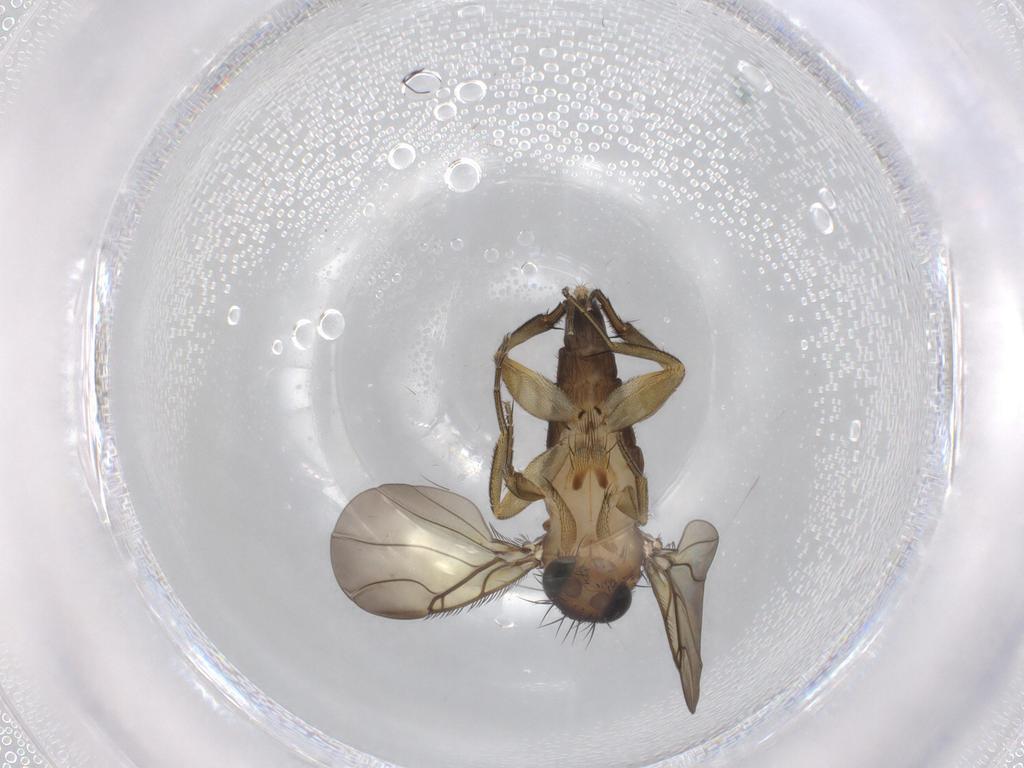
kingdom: Animalia
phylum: Arthropoda
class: Insecta
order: Diptera
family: Phoridae
